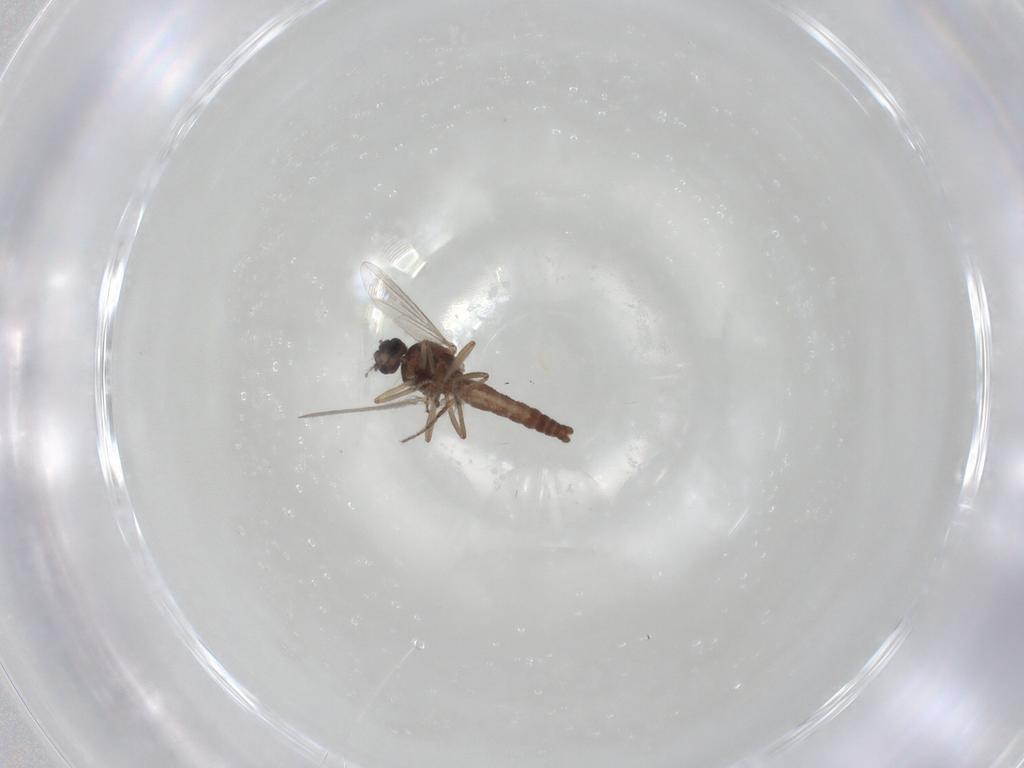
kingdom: Animalia
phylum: Arthropoda
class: Insecta
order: Diptera
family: Ceratopogonidae
